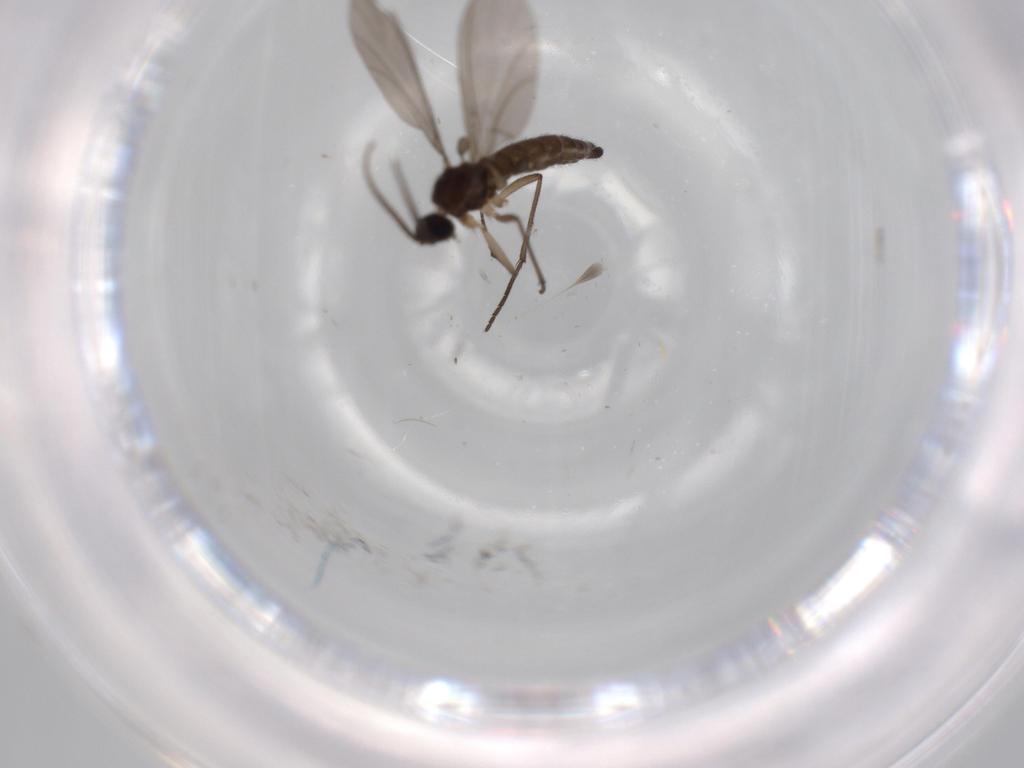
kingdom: Animalia
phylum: Arthropoda
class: Insecta
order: Diptera
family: Sciaridae
